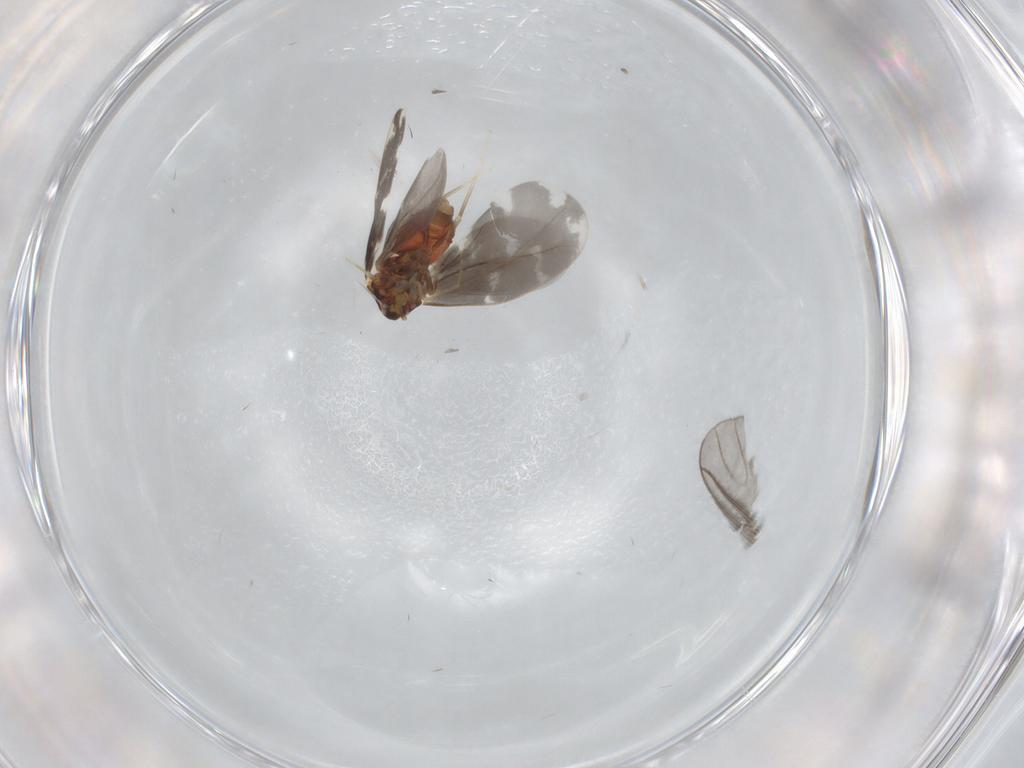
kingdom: Animalia
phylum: Arthropoda
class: Insecta
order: Hemiptera
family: Aleyrodidae
